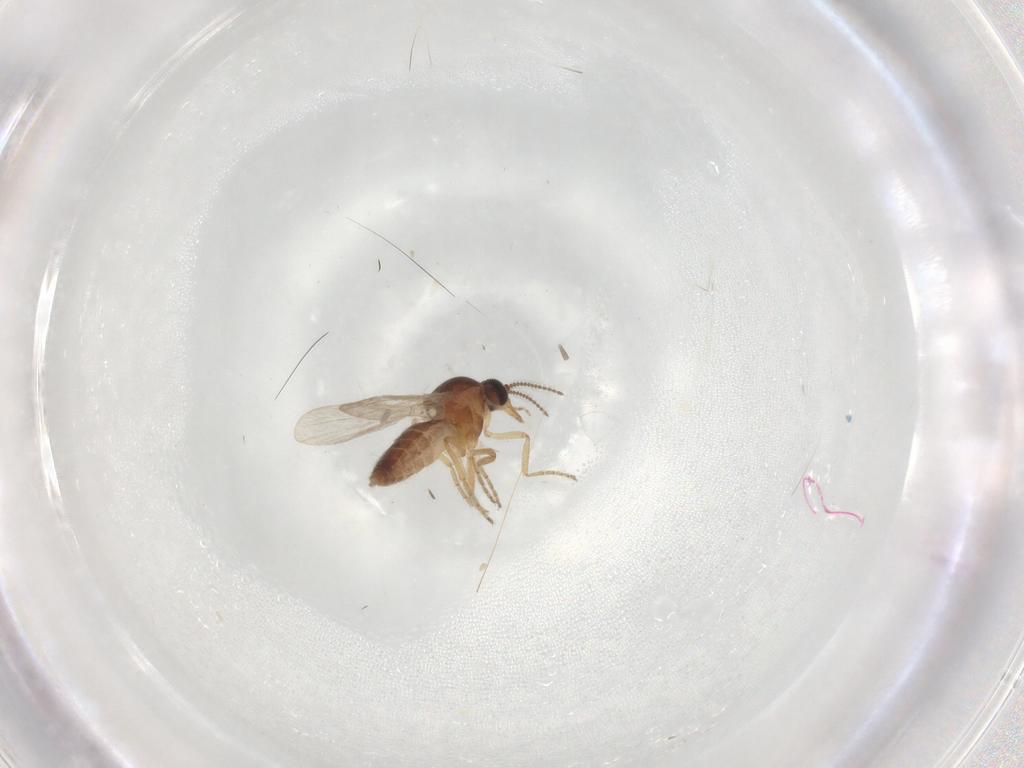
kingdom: Animalia
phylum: Arthropoda
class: Insecta
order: Diptera
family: Ceratopogonidae
